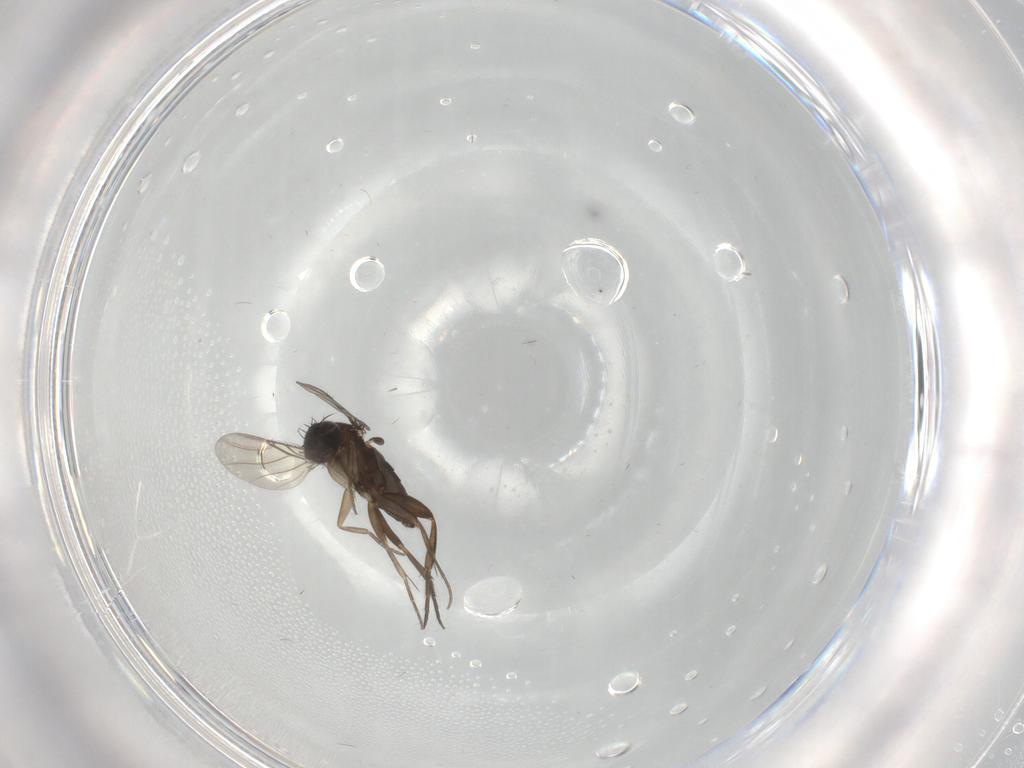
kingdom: Animalia
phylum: Arthropoda
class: Insecta
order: Diptera
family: Phoridae
